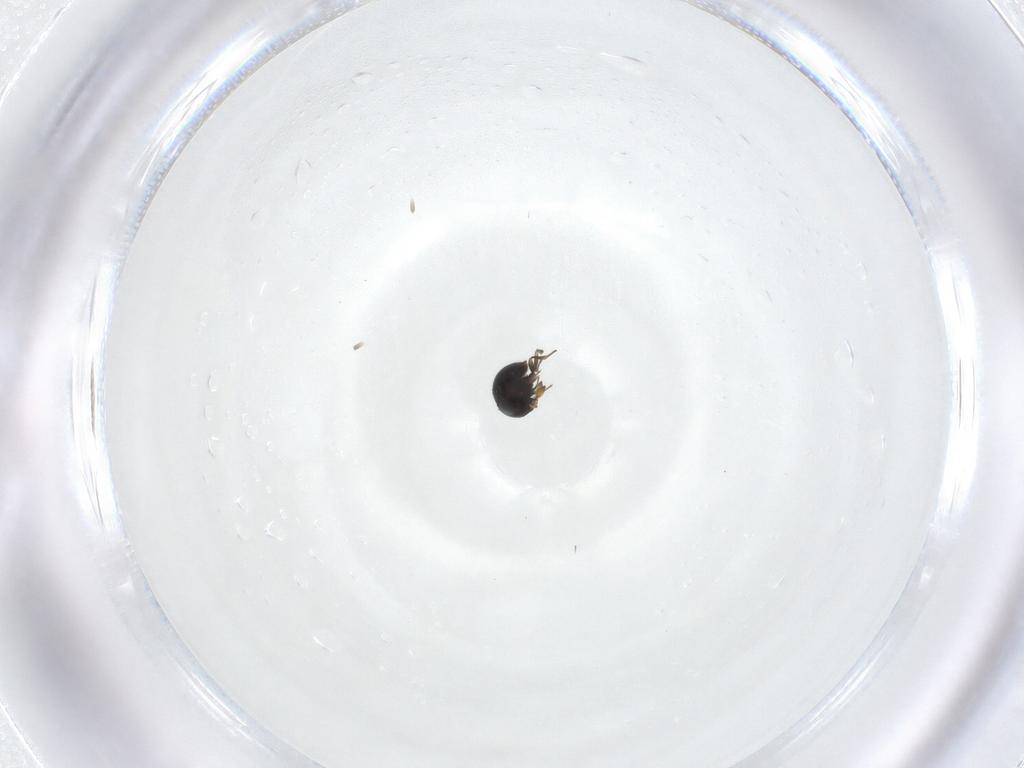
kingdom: Animalia
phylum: Arthropoda
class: Insecta
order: Hymenoptera
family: Scelionidae
